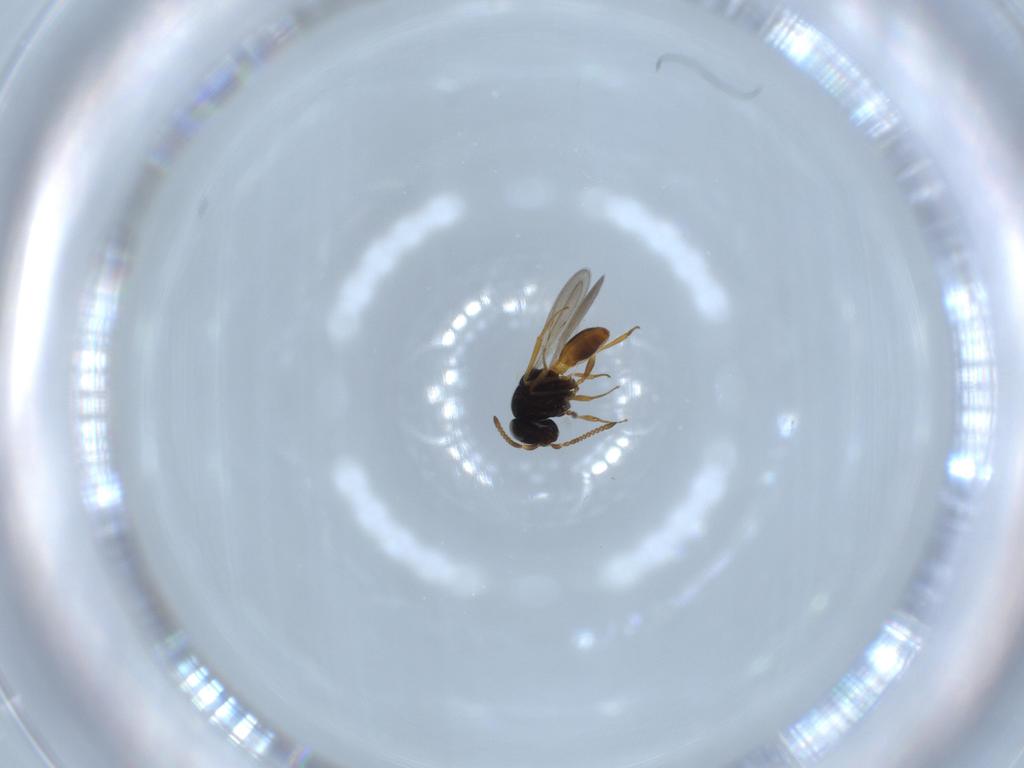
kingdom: Animalia
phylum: Arthropoda
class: Insecta
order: Hymenoptera
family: Scelionidae
